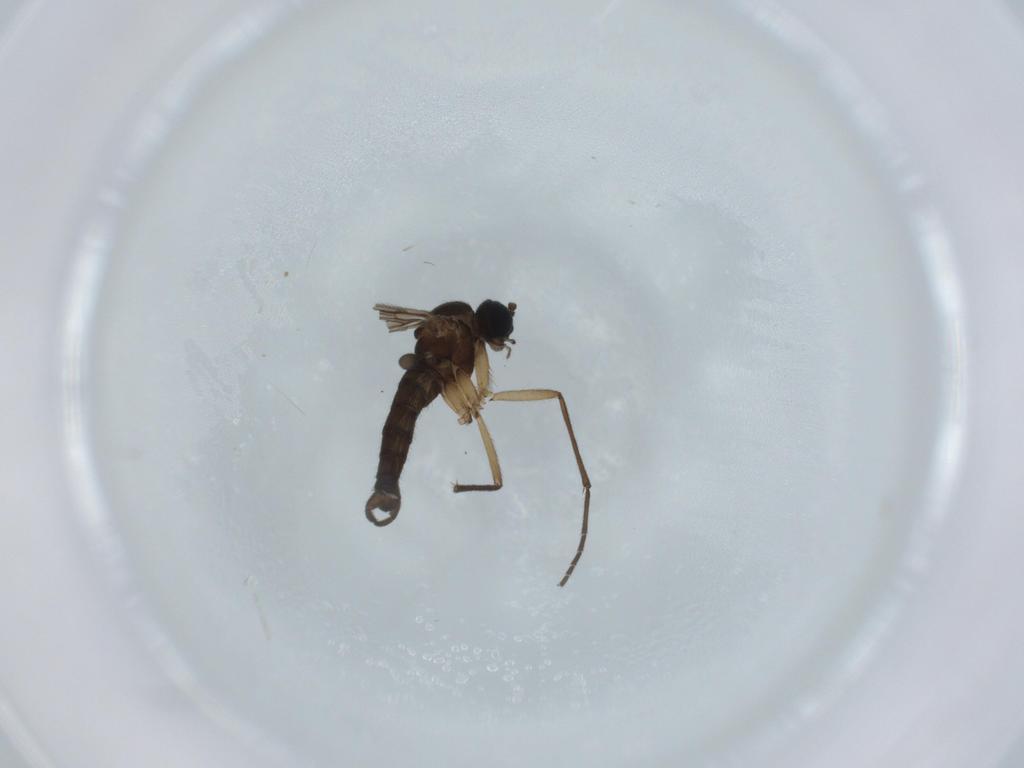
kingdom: Animalia
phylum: Arthropoda
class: Insecta
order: Diptera
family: Sciaridae
